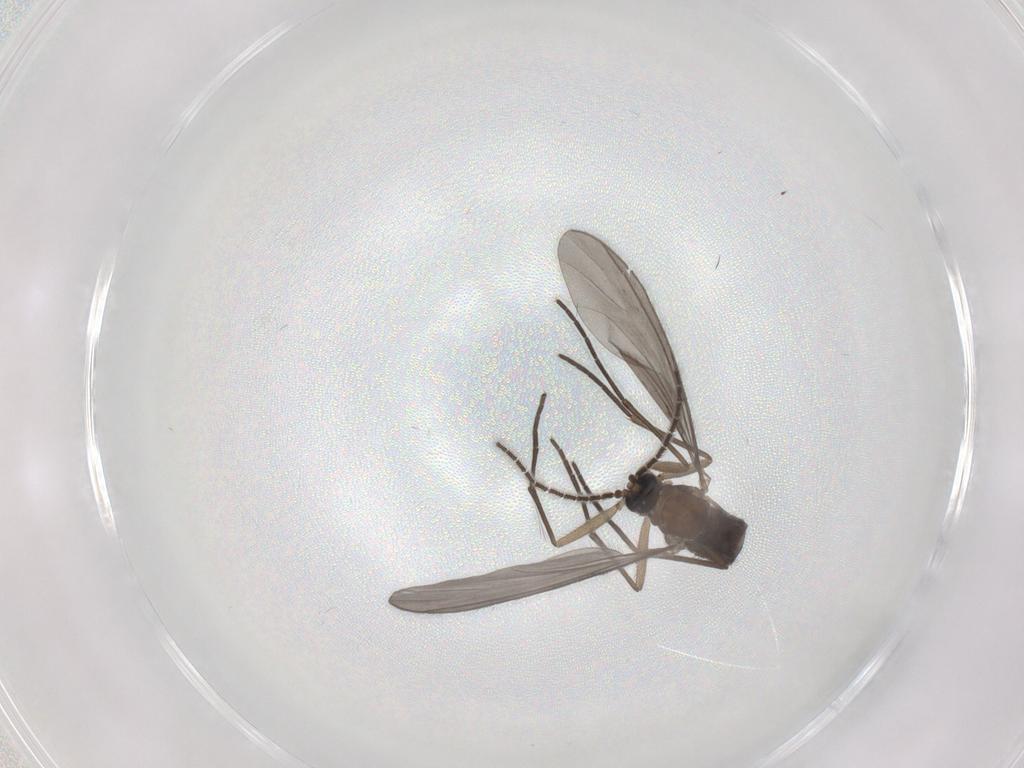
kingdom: Animalia
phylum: Arthropoda
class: Insecta
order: Diptera
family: Sciaridae
